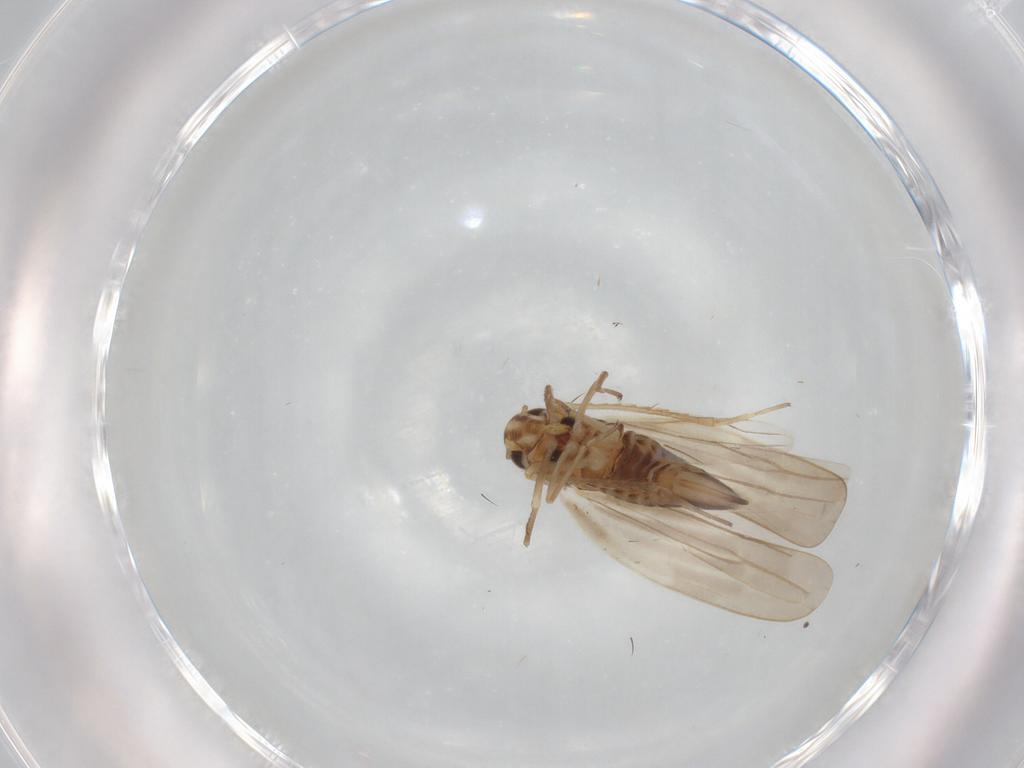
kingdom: Animalia
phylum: Arthropoda
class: Insecta
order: Hemiptera
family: Cicadellidae
